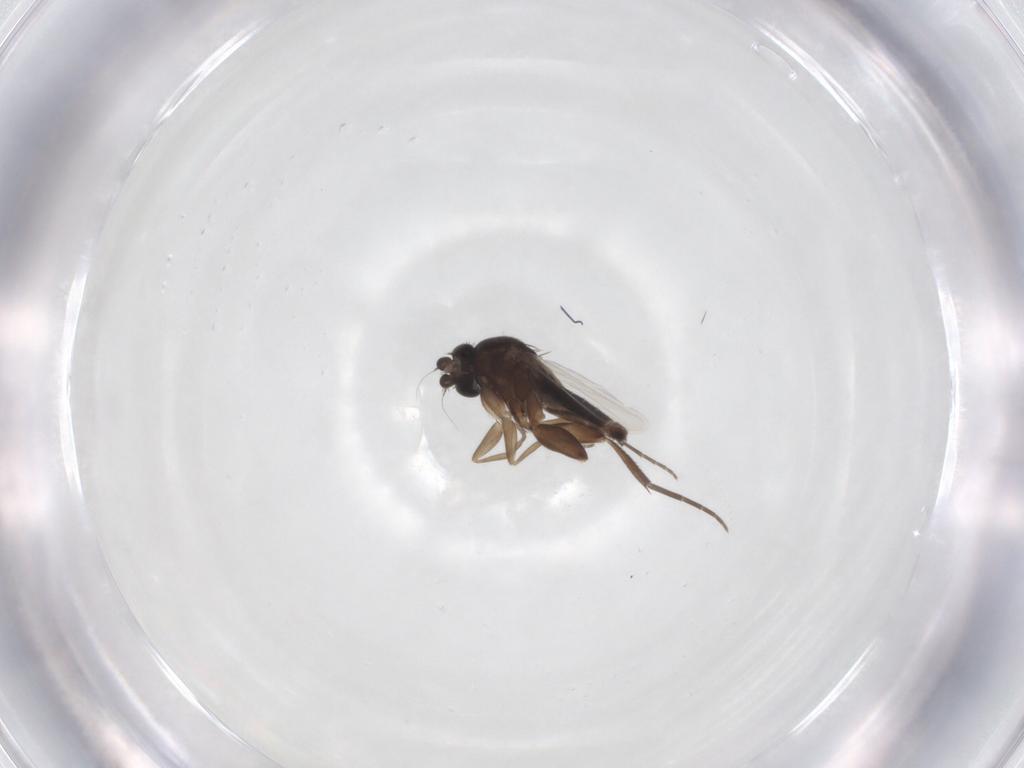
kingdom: Animalia
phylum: Arthropoda
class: Insecta
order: Diptera
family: Phoridae
